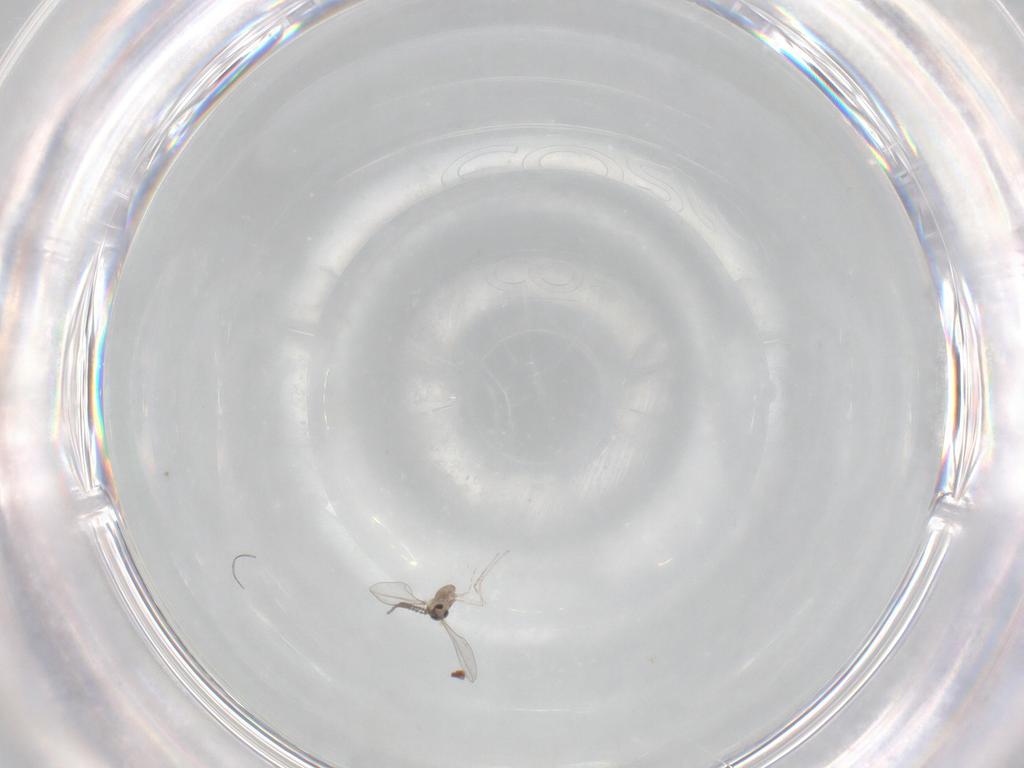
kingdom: Animalia
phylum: Arthropoda
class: Insecta
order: Diptera
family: Cecidomyiidae
